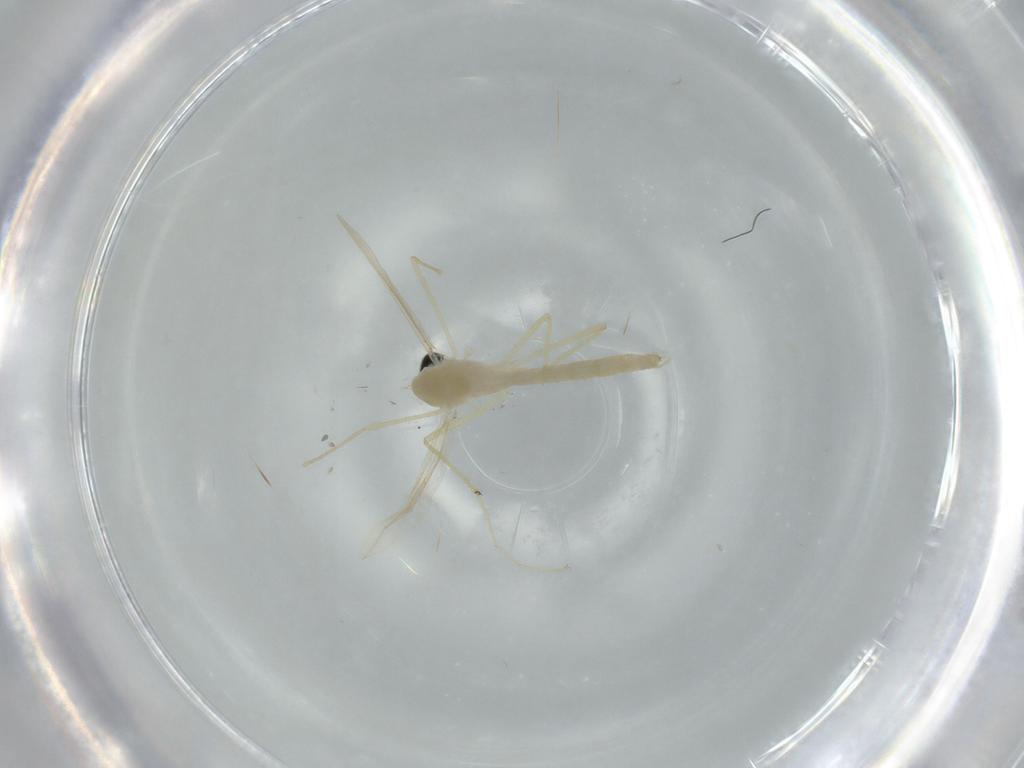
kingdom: Animalia
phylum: Arthropoda
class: Insecta
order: Diptera
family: Chironomidae
